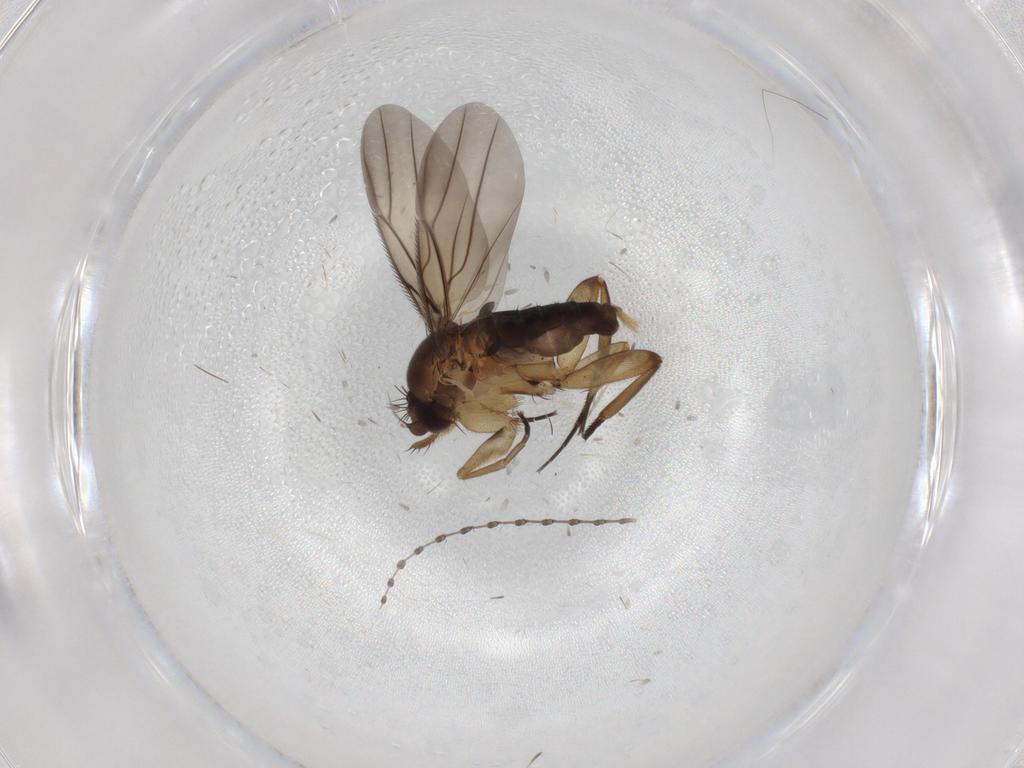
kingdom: Animalia
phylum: Arthropoda
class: Insecta
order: Diptera
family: Cecidomyiidae
